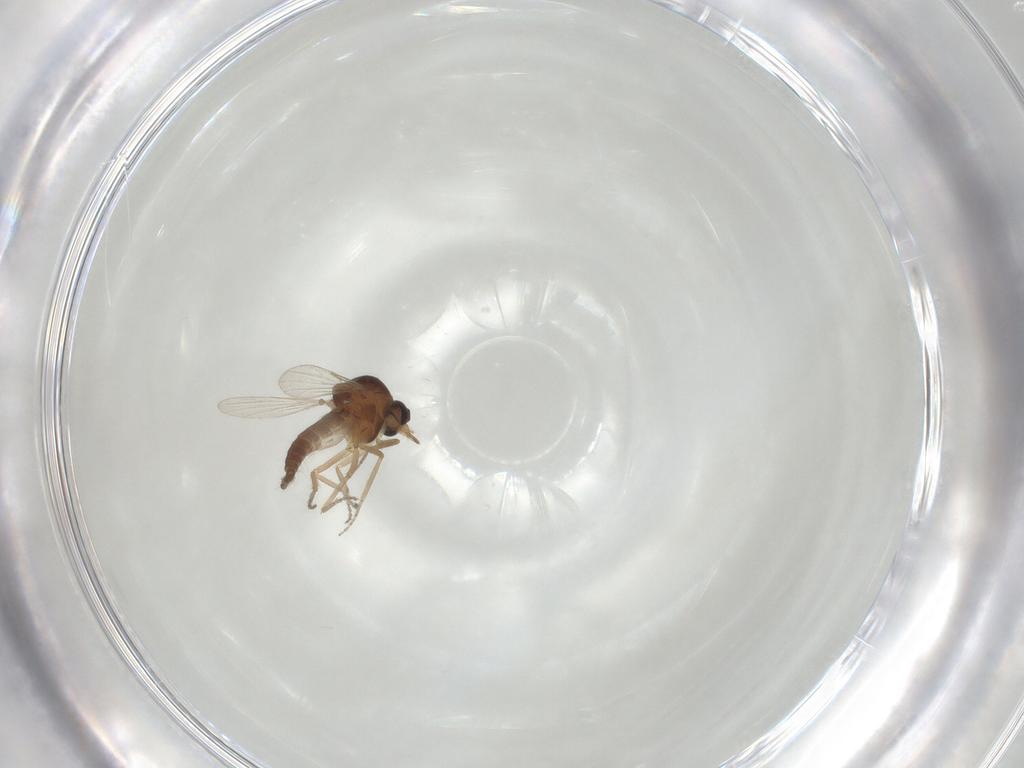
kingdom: Animalia
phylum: Arthropoda
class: Insecta
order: Diptera
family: Ceratopogonidae
